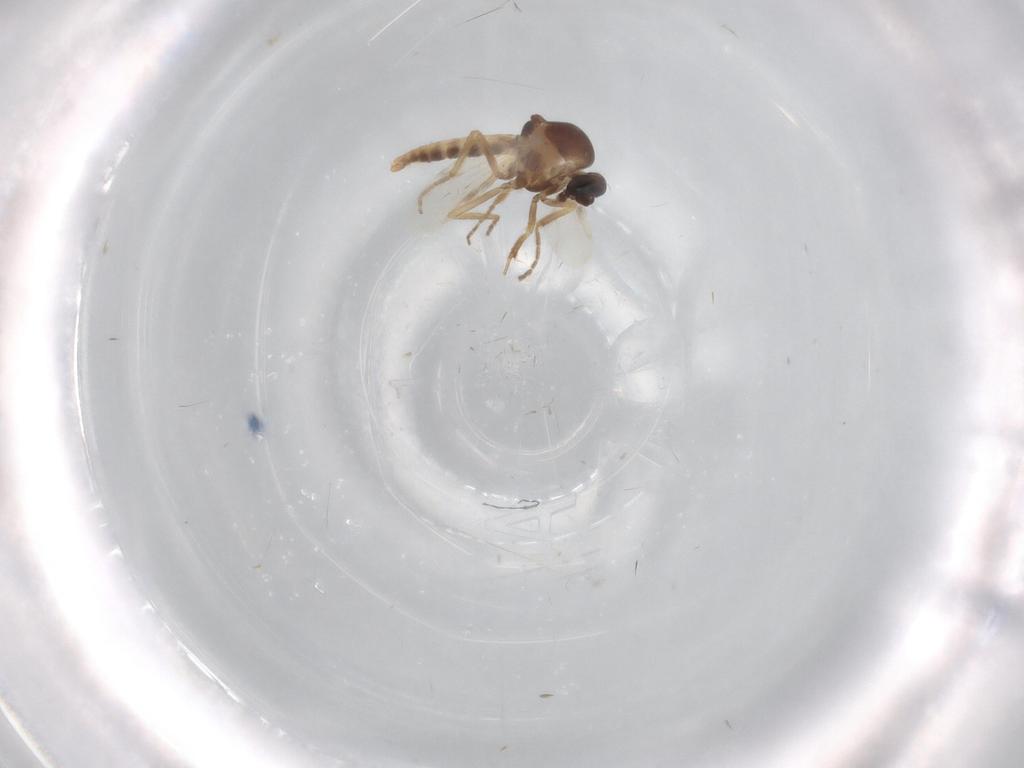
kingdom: Animalia
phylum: Arthropoda
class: Insecta
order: Diptera
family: Ceratopogonidae
